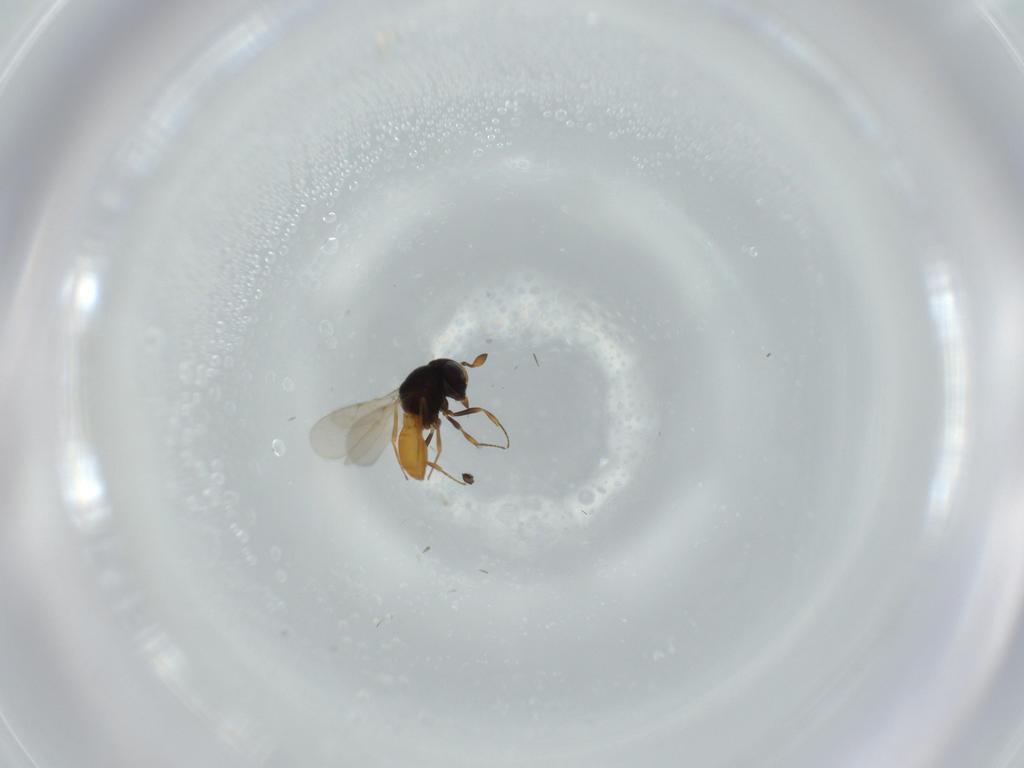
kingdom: Animalia
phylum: Arthropoda
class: Insecta
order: Hymenoptera
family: Scelionidae
